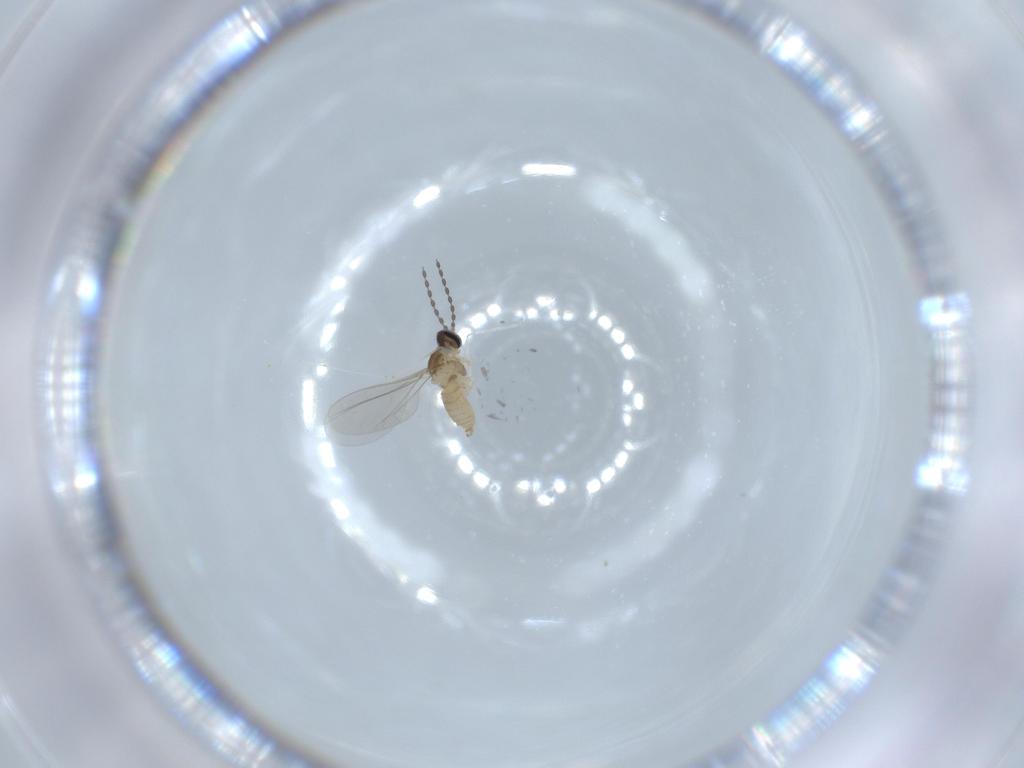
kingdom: Animalia
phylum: Arthropoda
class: Insecta
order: Diptera
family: Cecidomyiidae
